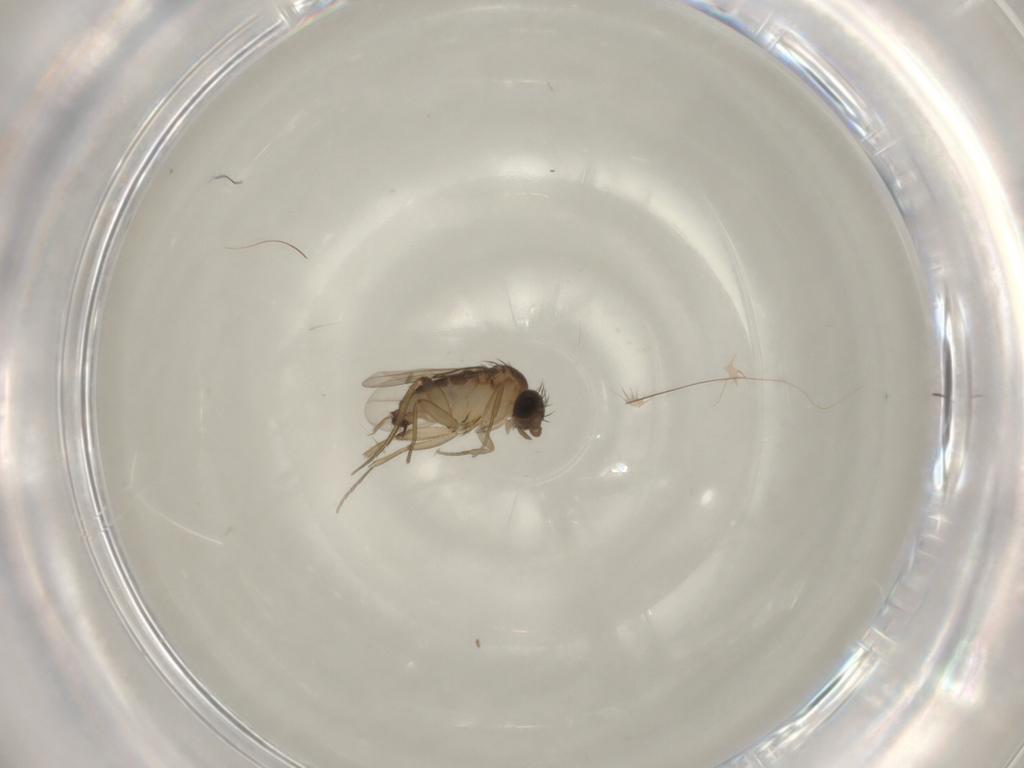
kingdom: Animalia
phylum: Arthropoda
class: Insecta
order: Diptera
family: Phoridae
